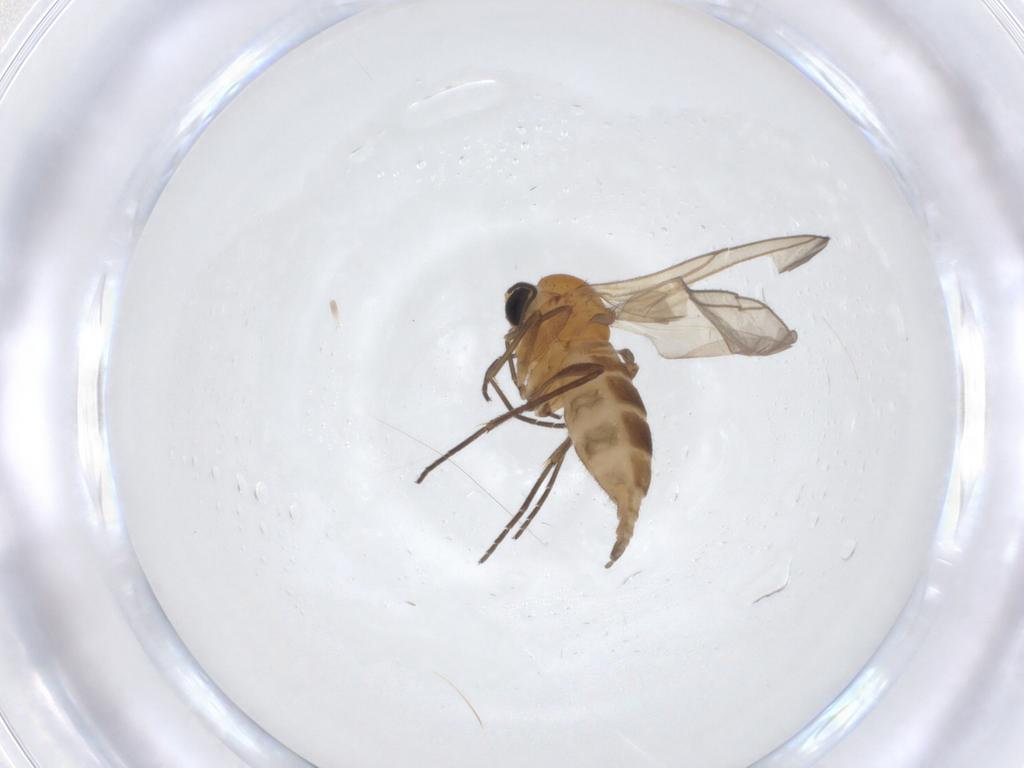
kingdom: Animalia
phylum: Arthropoda
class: Insecta
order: Diptera
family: Sciaridae
